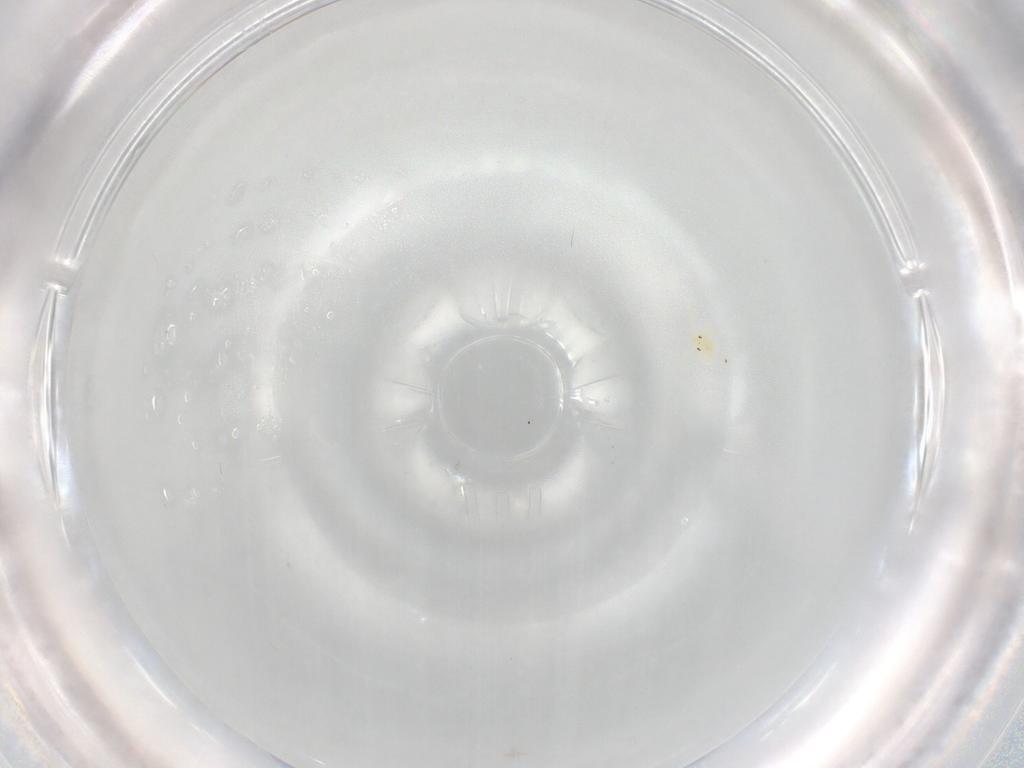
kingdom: Animalia
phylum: Arthropoda
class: Arachnida
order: Trombidiformes
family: Hydryphantidae
